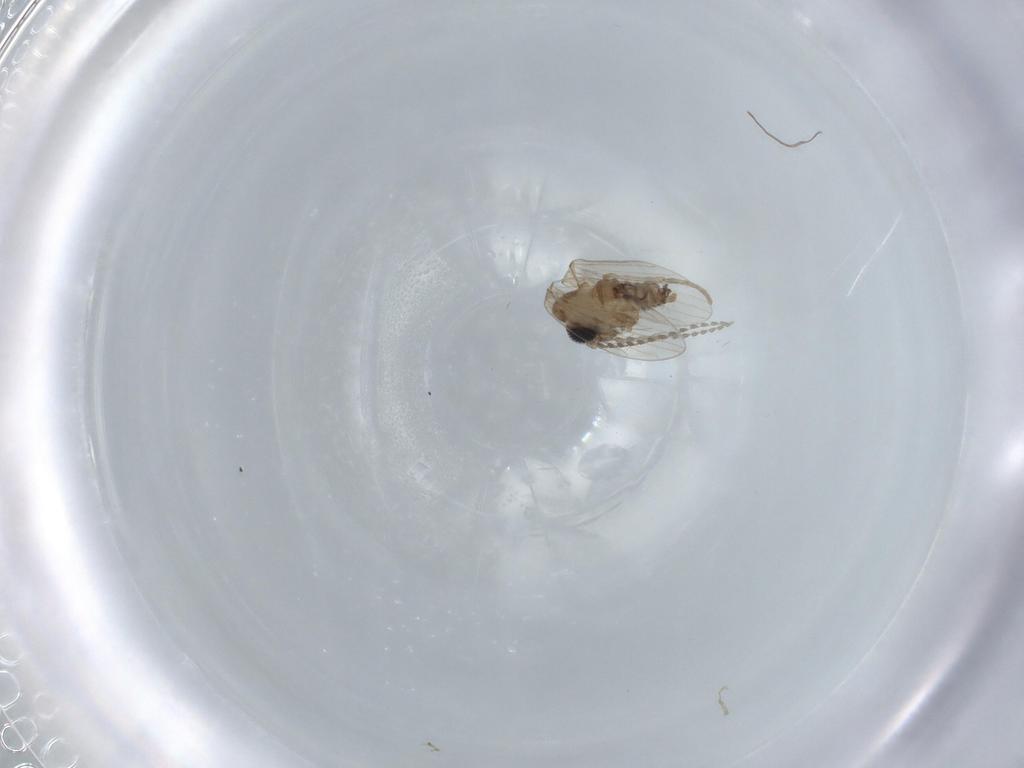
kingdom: Animalia
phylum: Arthropoda
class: Insecta
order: Diptera
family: Psychodidae
